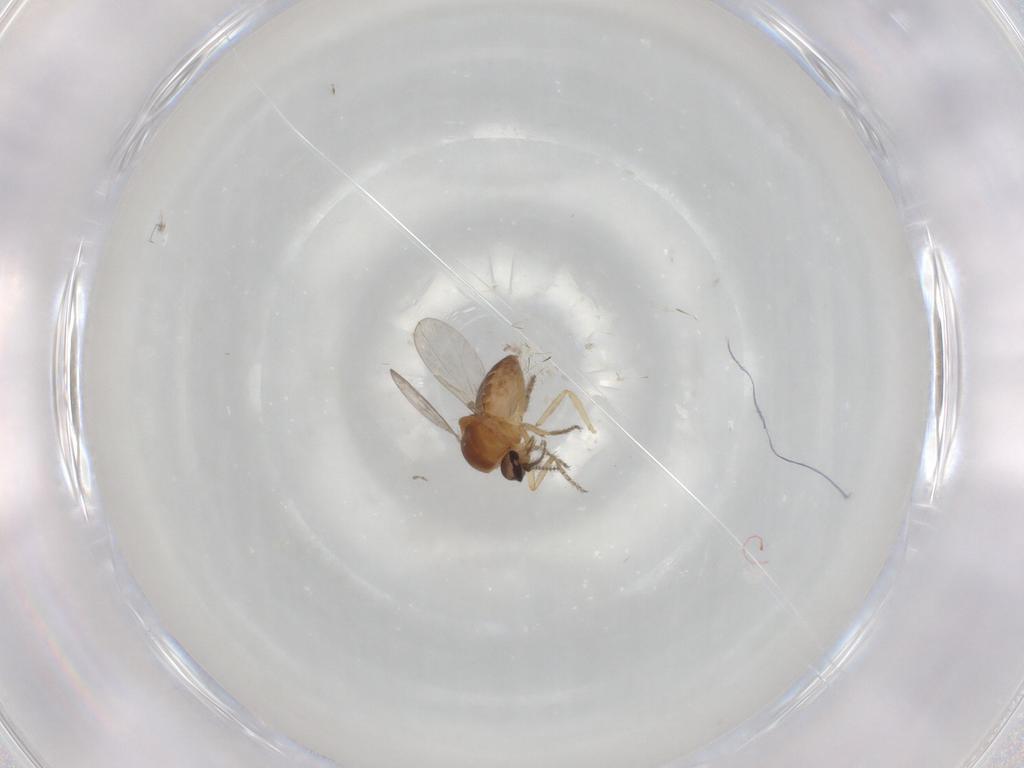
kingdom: Animalia
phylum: Arthropoda
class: Insecta
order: Diptera
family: Ceratopogonidae
